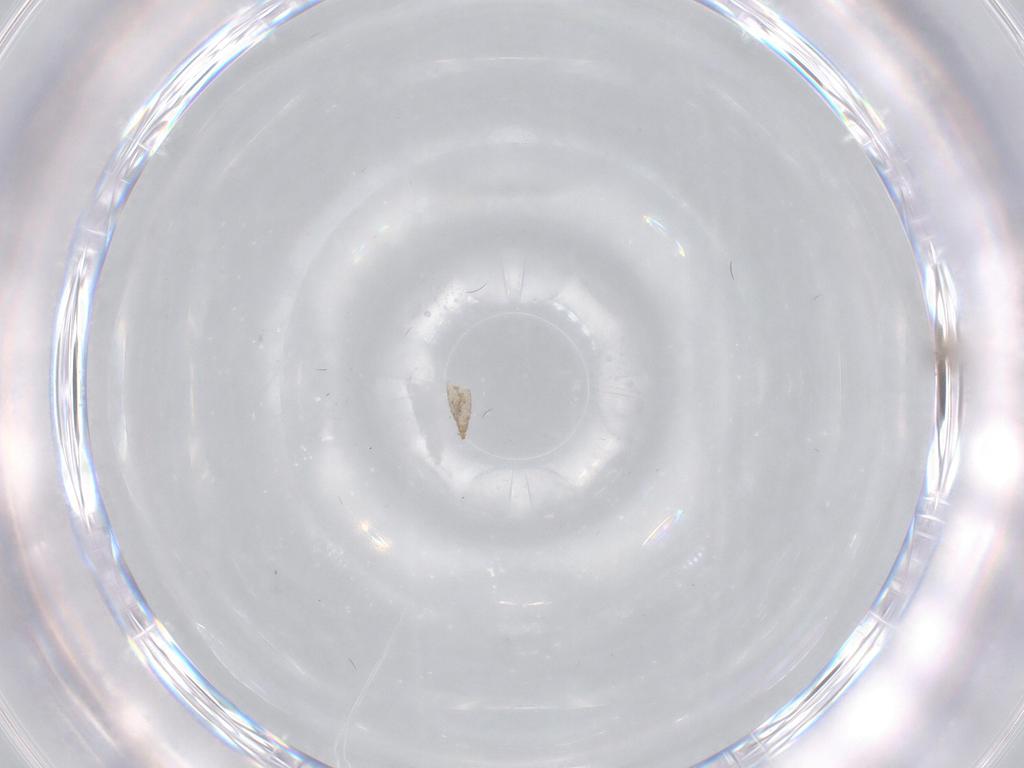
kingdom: Animalia
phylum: Arthropoda
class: Insecta
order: Diptera
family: Cecidomyiidae
